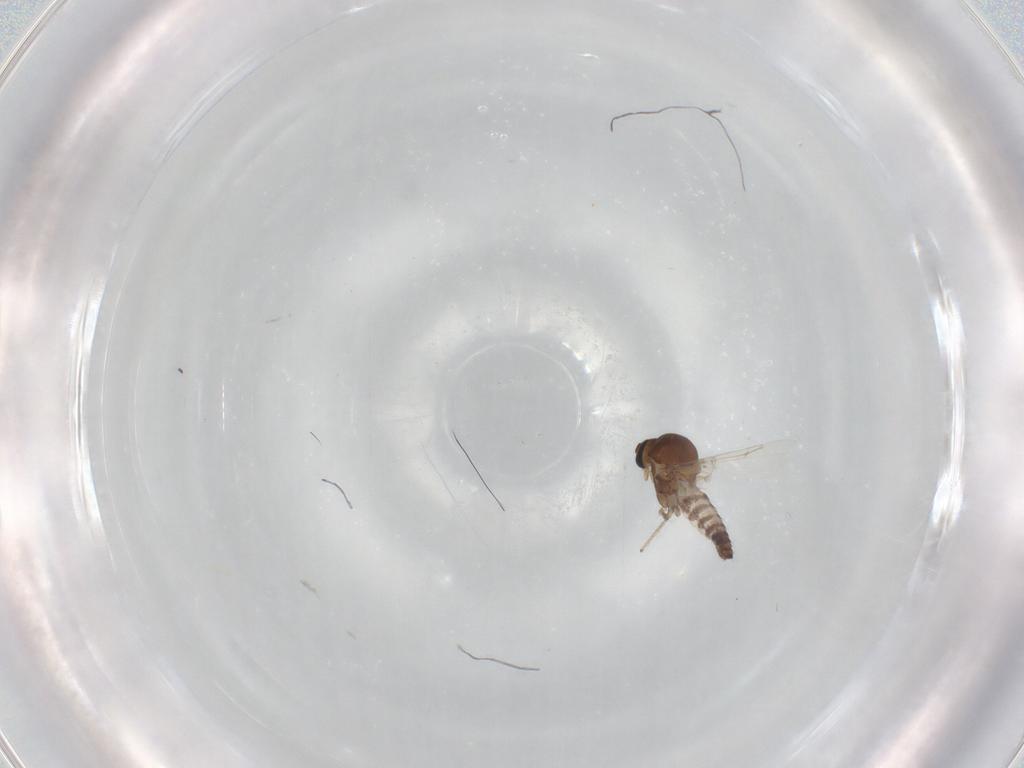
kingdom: Animalia
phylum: Arthropoda
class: Insecta
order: Diptera
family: Ceratopogonidae
